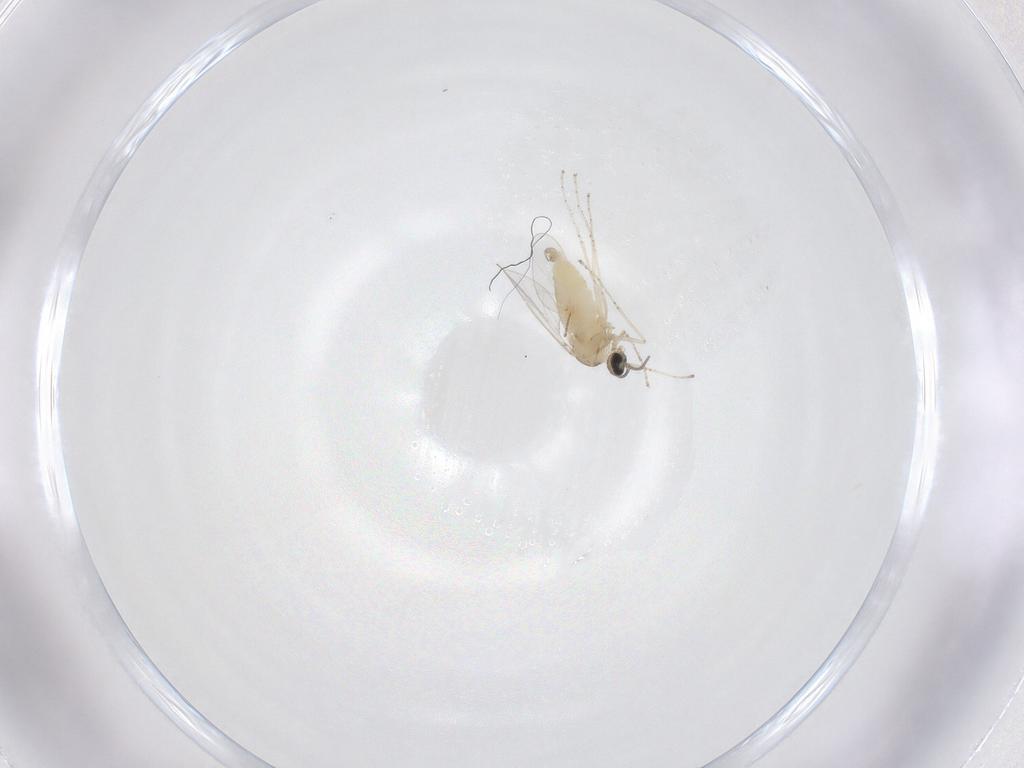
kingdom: Animalia
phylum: Arthropoda
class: Insecta
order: Diptera
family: Cecidomyiidae
